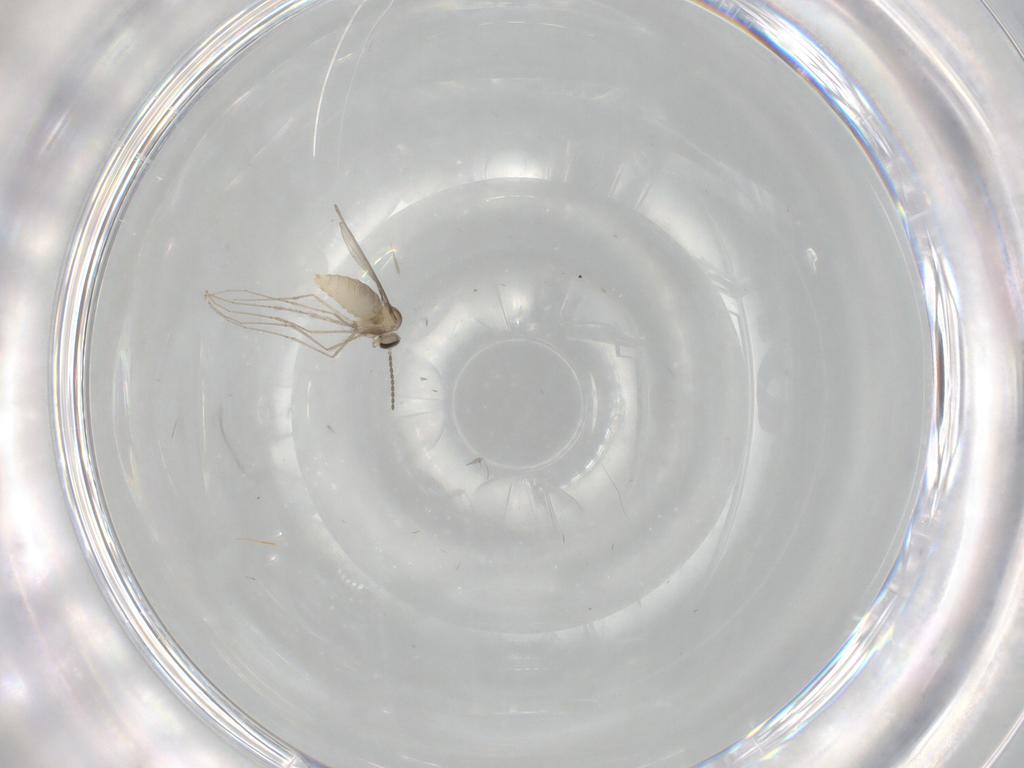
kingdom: Animalia
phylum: Arthropoda
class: Insecta
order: Diptera
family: Cecidomyiidae
